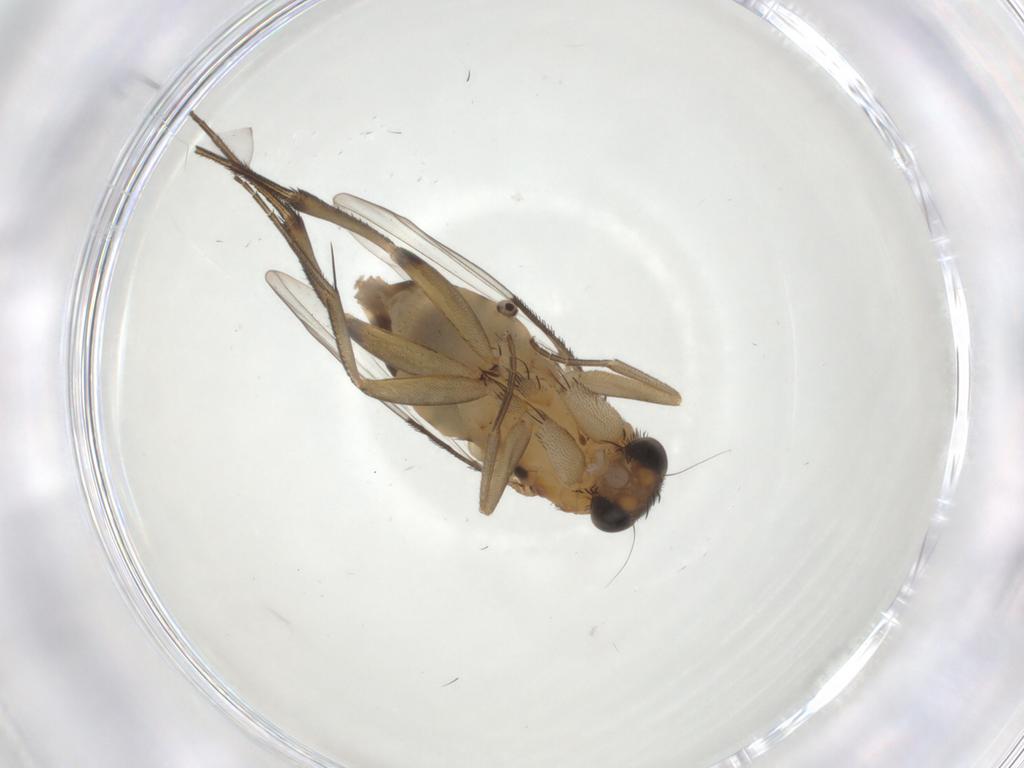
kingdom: Animalia
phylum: Arthropoda
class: Insecta
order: Diptera
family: Phoridae
